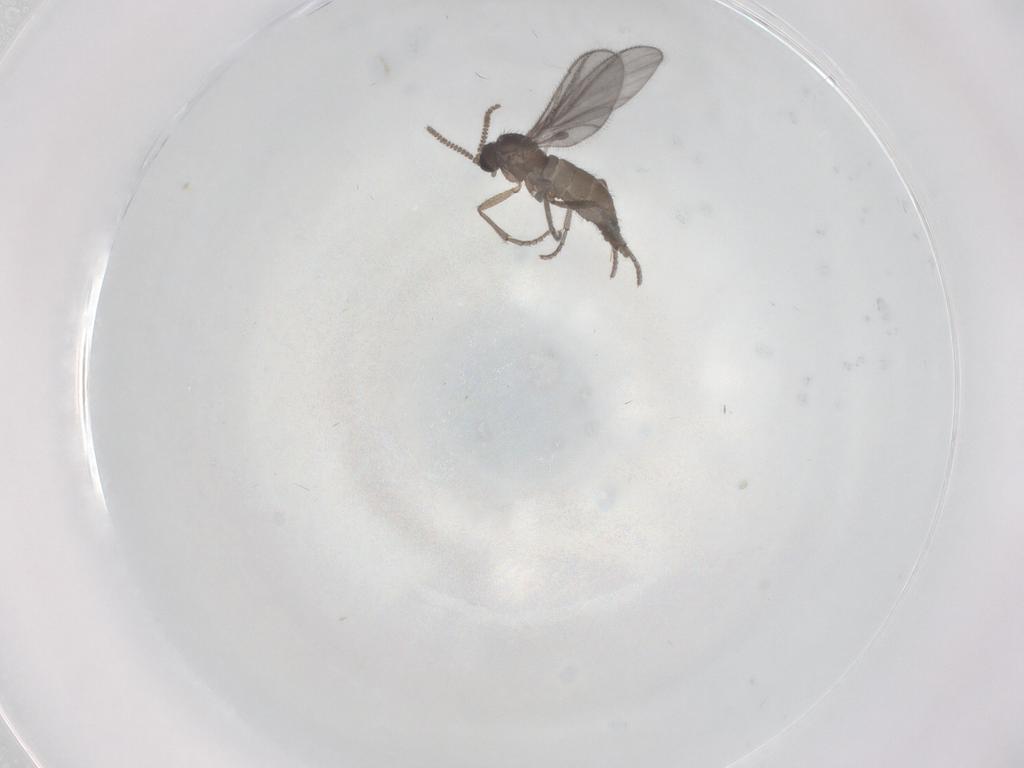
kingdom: Animalia
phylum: Arthropoda
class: Insecta
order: Diptera
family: Sciaridae
